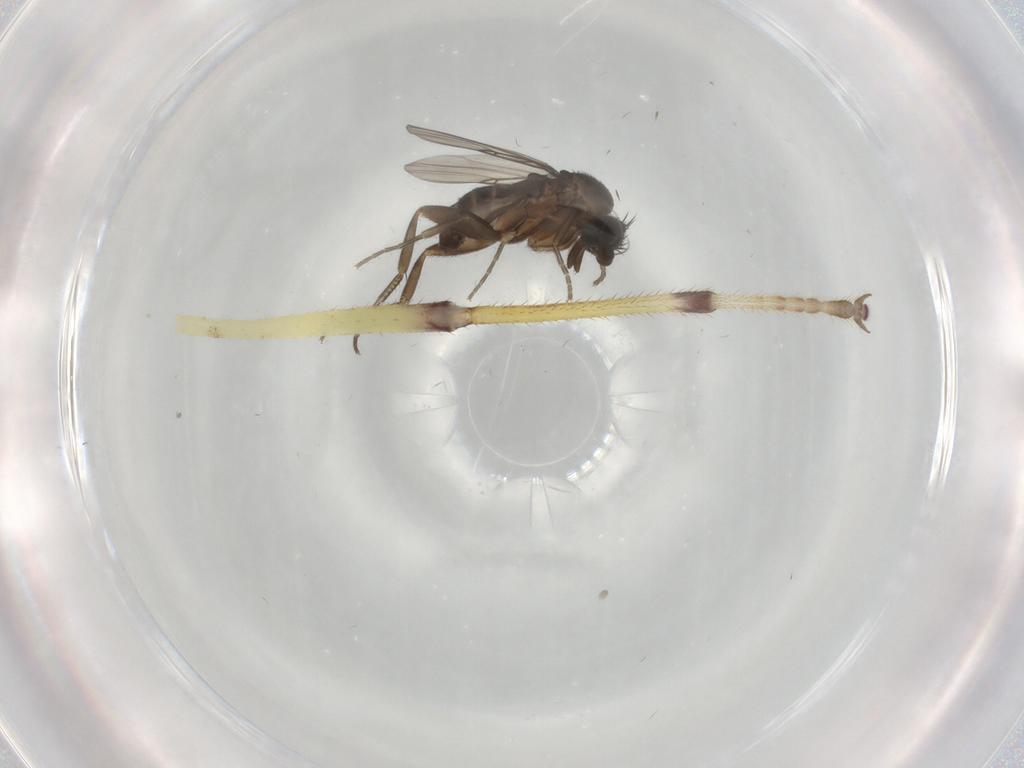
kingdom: Animalia
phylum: Arthropoda
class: Insecta
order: Diptera
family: Phoridae
